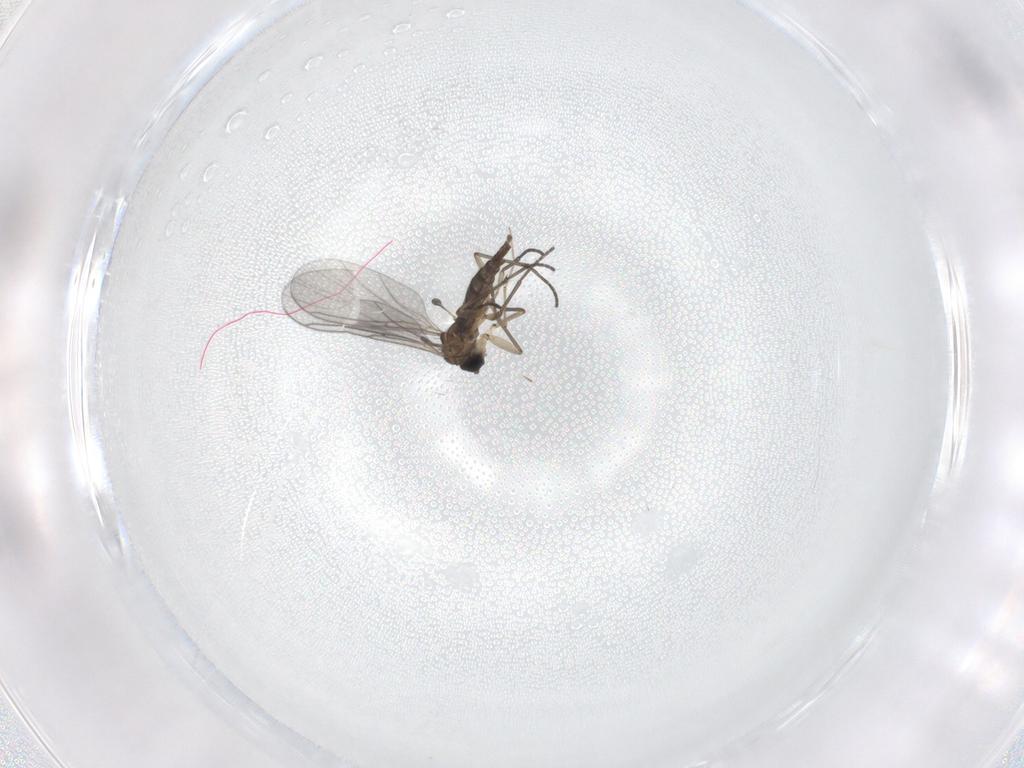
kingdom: Animalia
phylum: Arthropoda
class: Insecta
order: Diptera
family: Sciaridae
